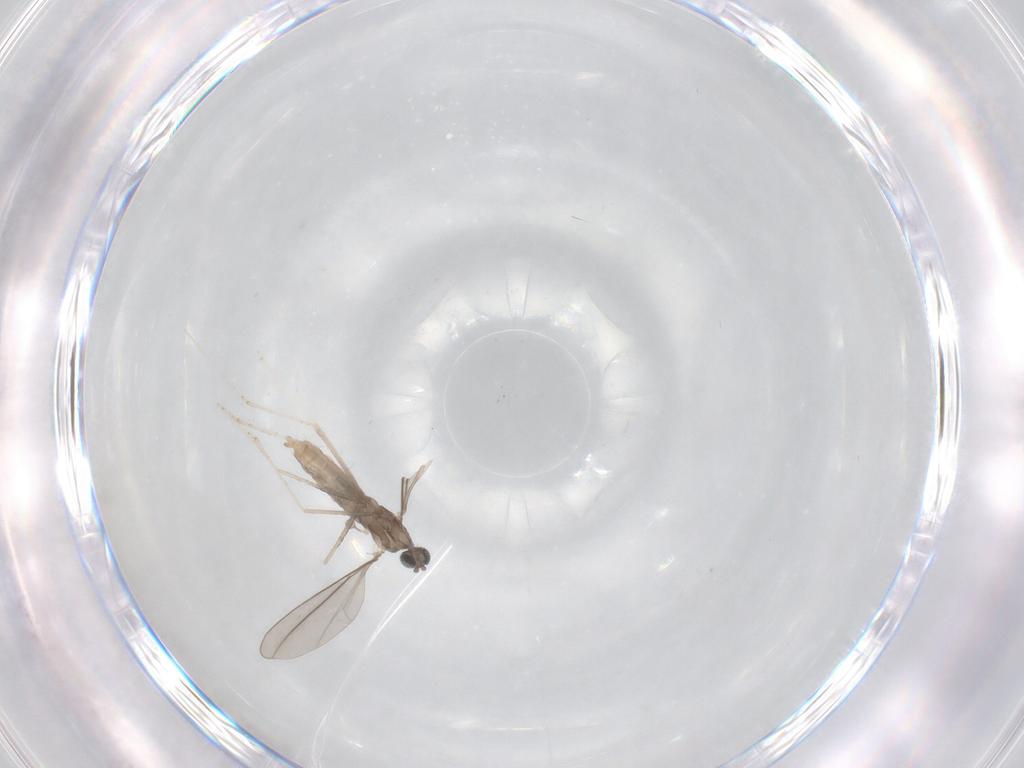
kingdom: Animalia
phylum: Arthropoda
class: Insecta
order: Diptera
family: Cecidomyiidae
